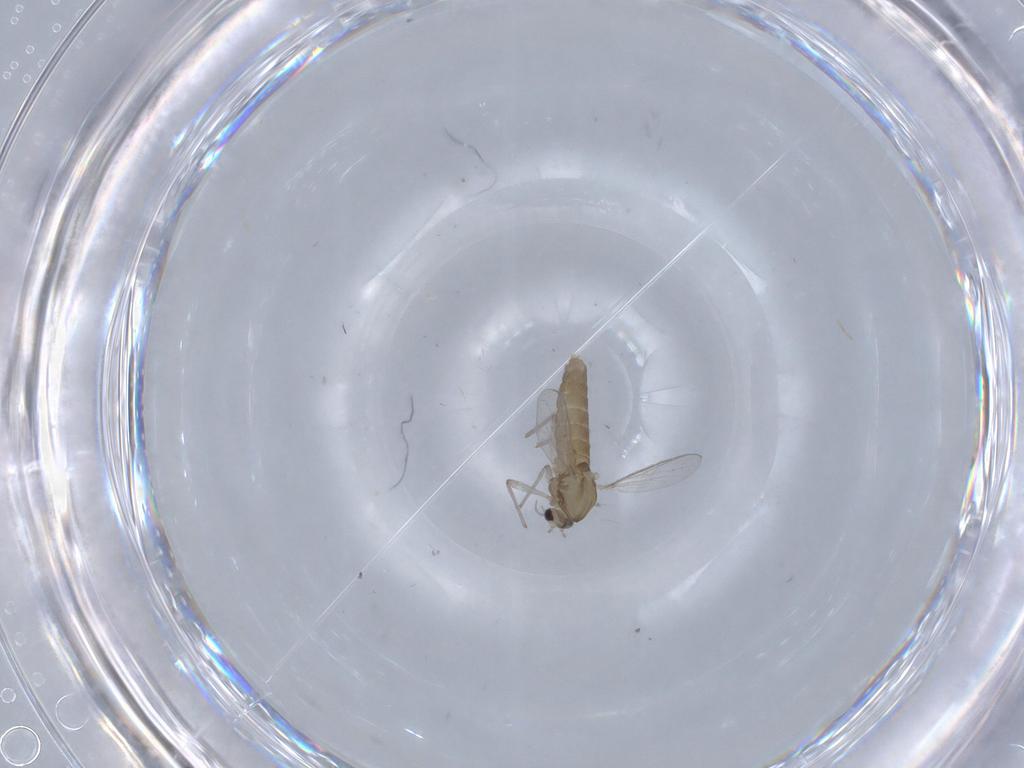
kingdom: Animalia
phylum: Arthropoda
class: Insecta
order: Diptera
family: Chironomidae
